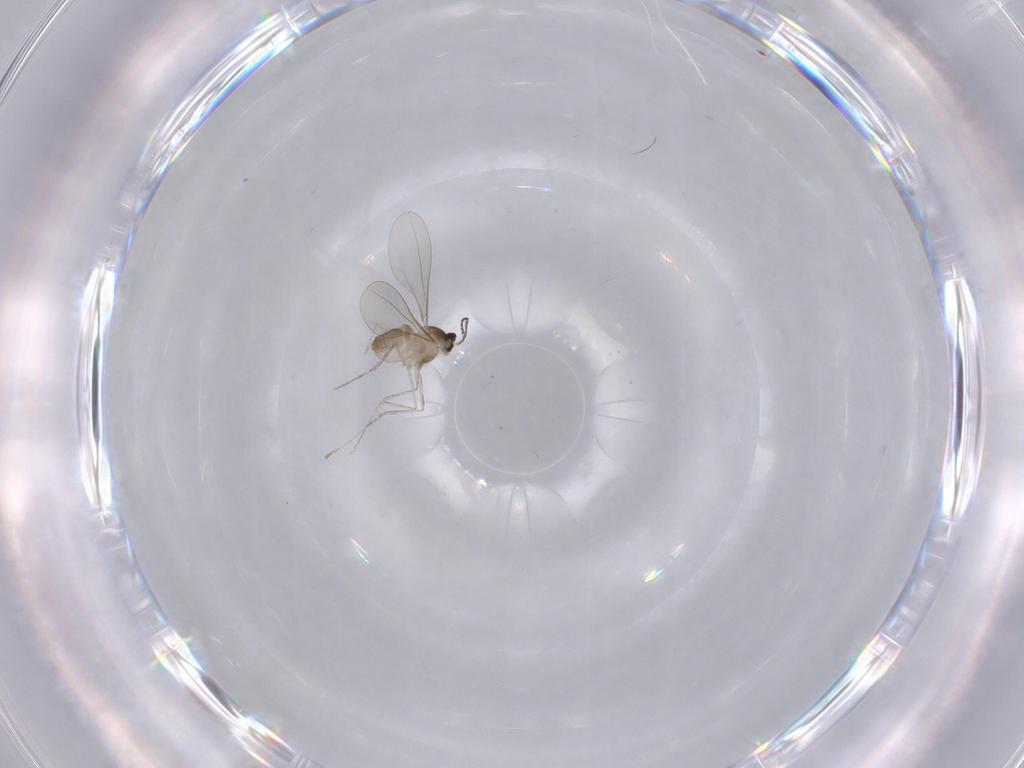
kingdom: Animalia
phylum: Arthropoda
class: Insecta
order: Diptera
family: Cecidomyiidae
